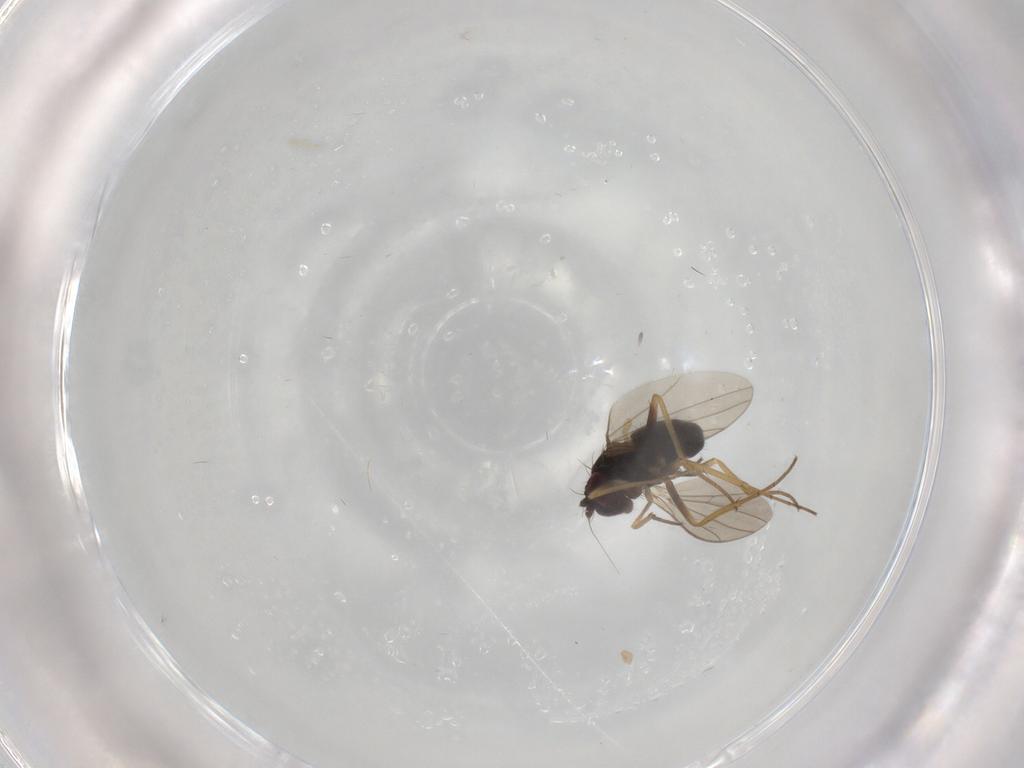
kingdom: Animalia
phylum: Arthropoda
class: Insecta
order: Diptera
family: Dolichopodidae
